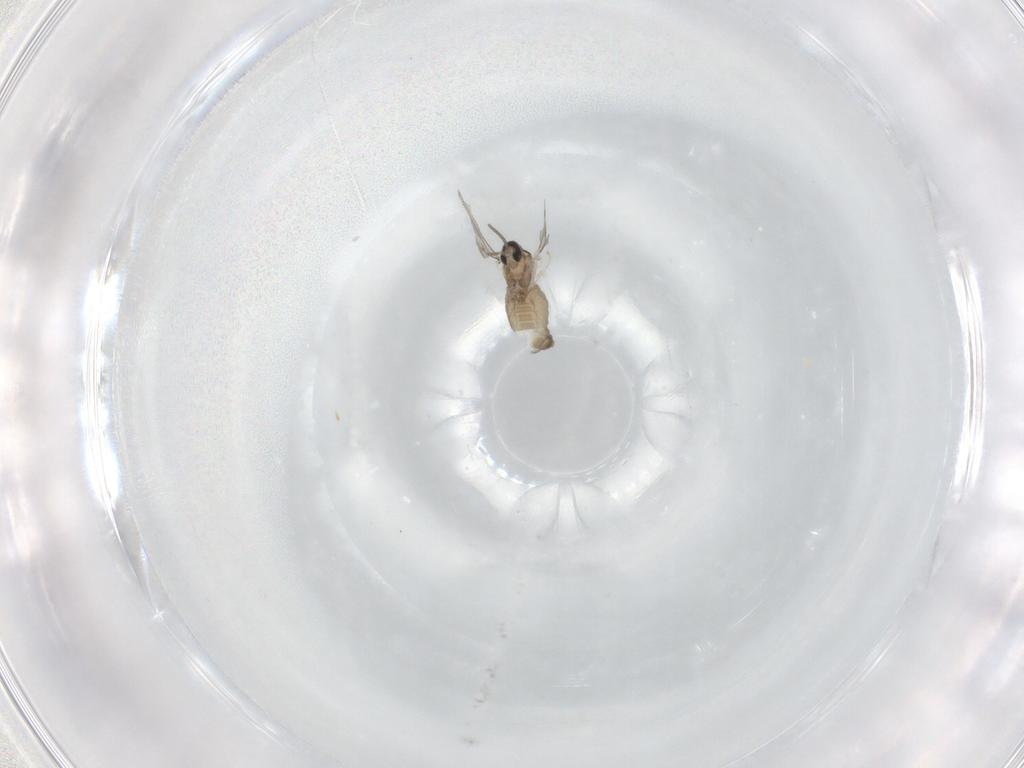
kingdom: Animalia
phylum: Arthropoda
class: Insecta
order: Diptera
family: Cecidomyiidae
